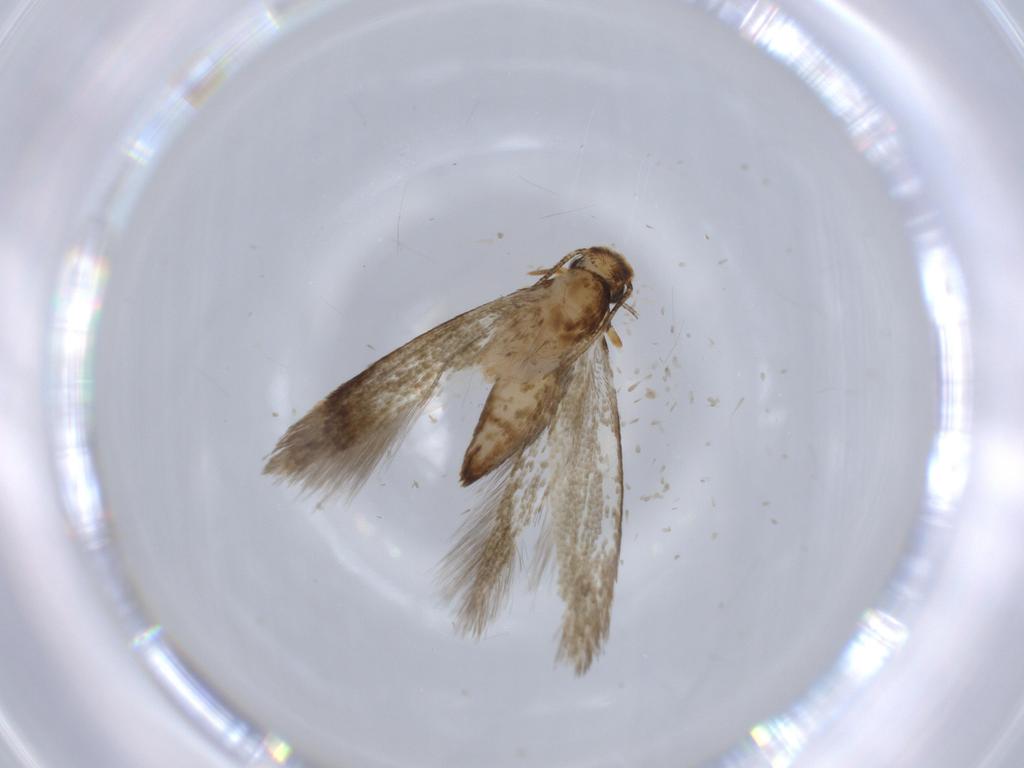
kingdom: Animalia
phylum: Arthropoda
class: Insecta
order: Lepidoptera
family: Tineidae
